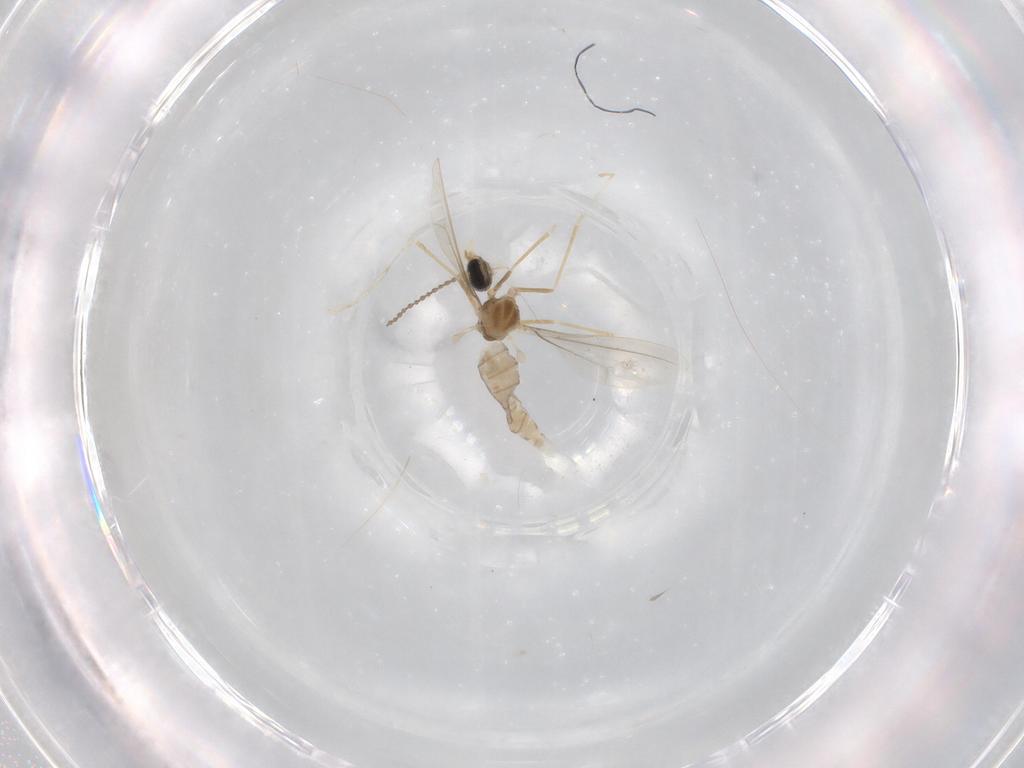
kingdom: Animalia
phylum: Arthropoda
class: Insecta
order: Diptera
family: Cecidomyiidae
